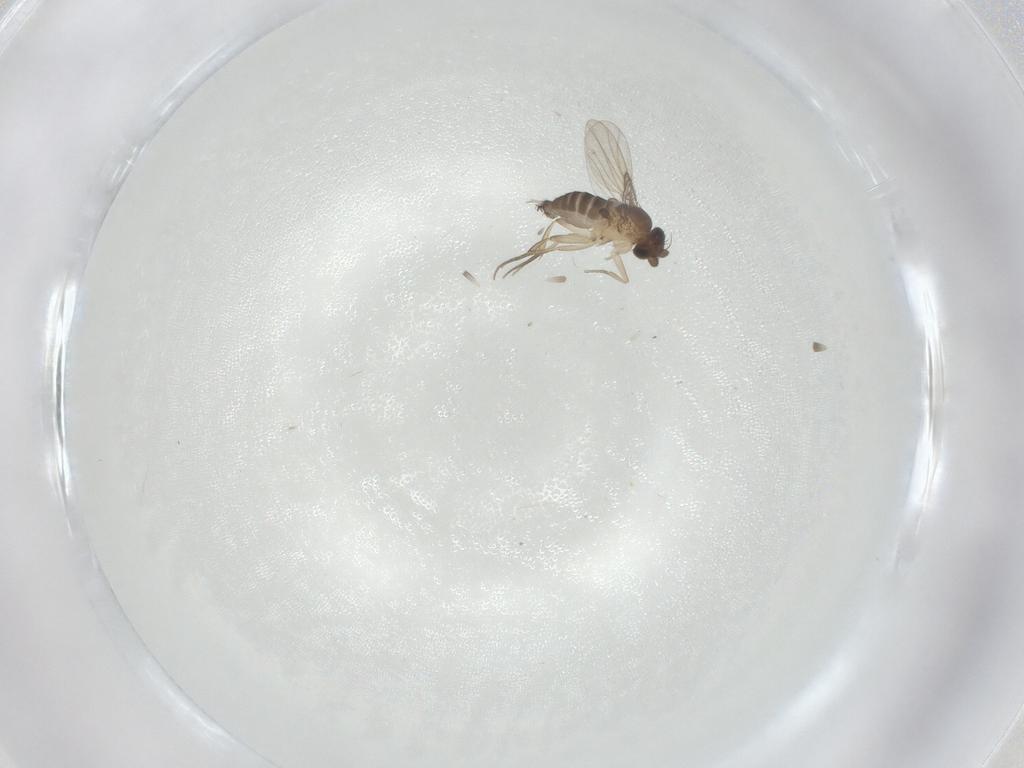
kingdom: Animalia
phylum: Arthropoda
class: Insecta
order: Diptera
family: Phoridae
